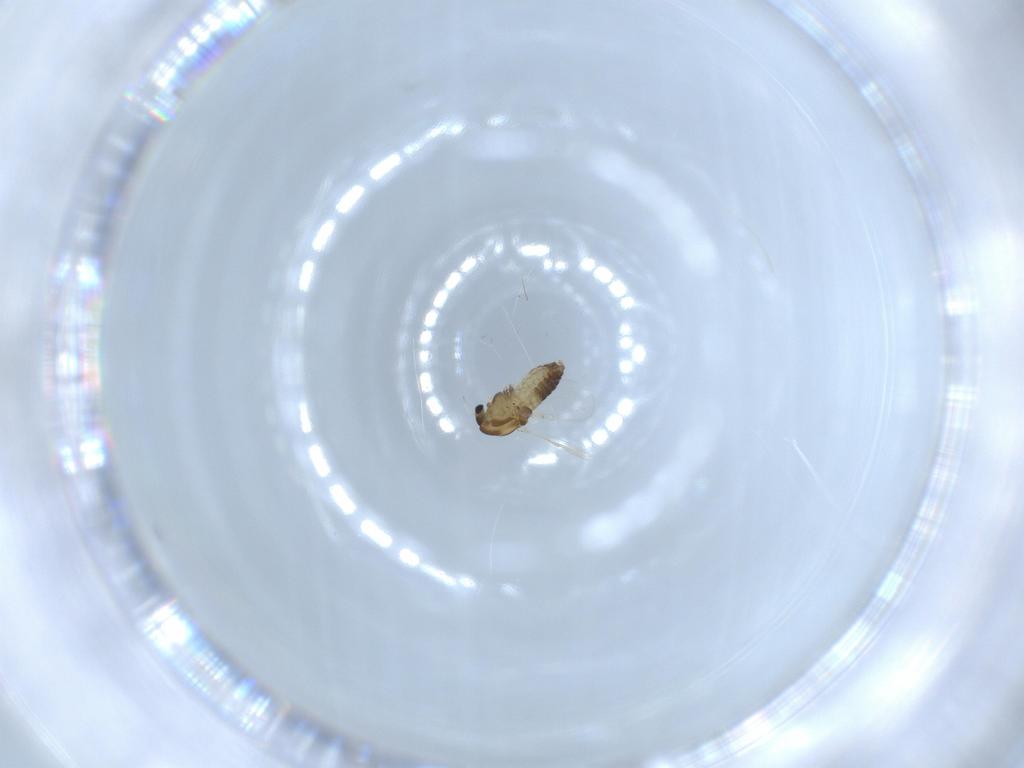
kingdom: Animalia
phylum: Arthropoda
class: Insecta
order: Diptera
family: Chironomidae
